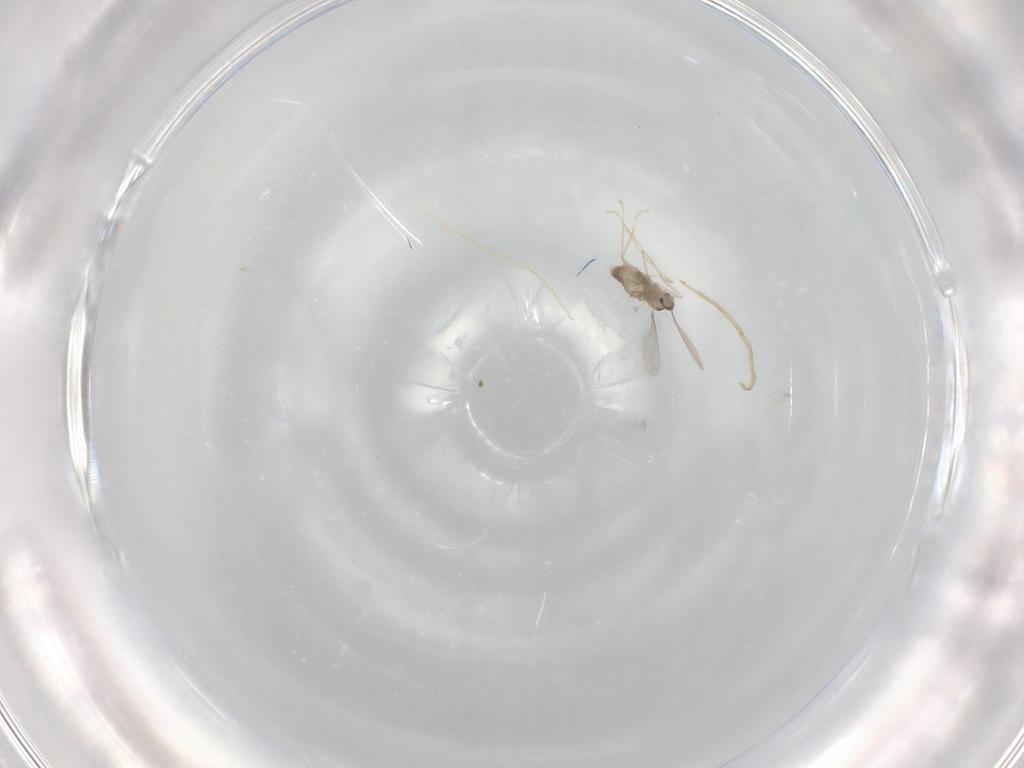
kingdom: Animalia
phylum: Arthropoda
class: Insecta
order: Diptera
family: Cecidomyiidae
